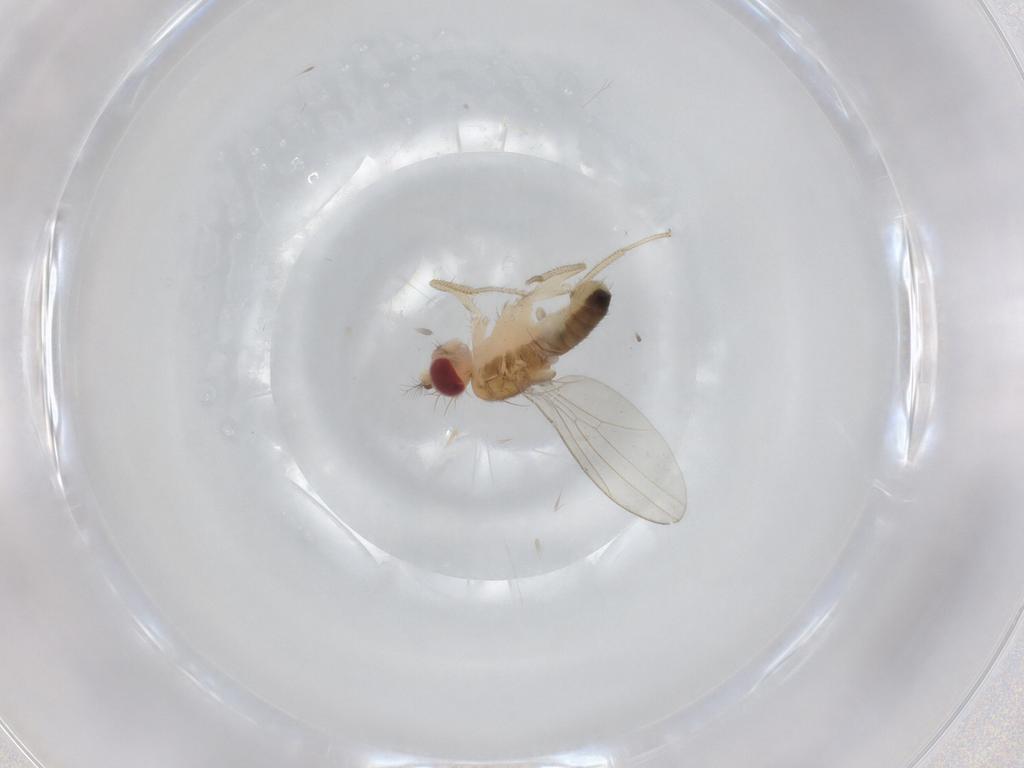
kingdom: Animalia
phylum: Arthropoda
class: Insecta
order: Diptera
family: Drosophilidae
